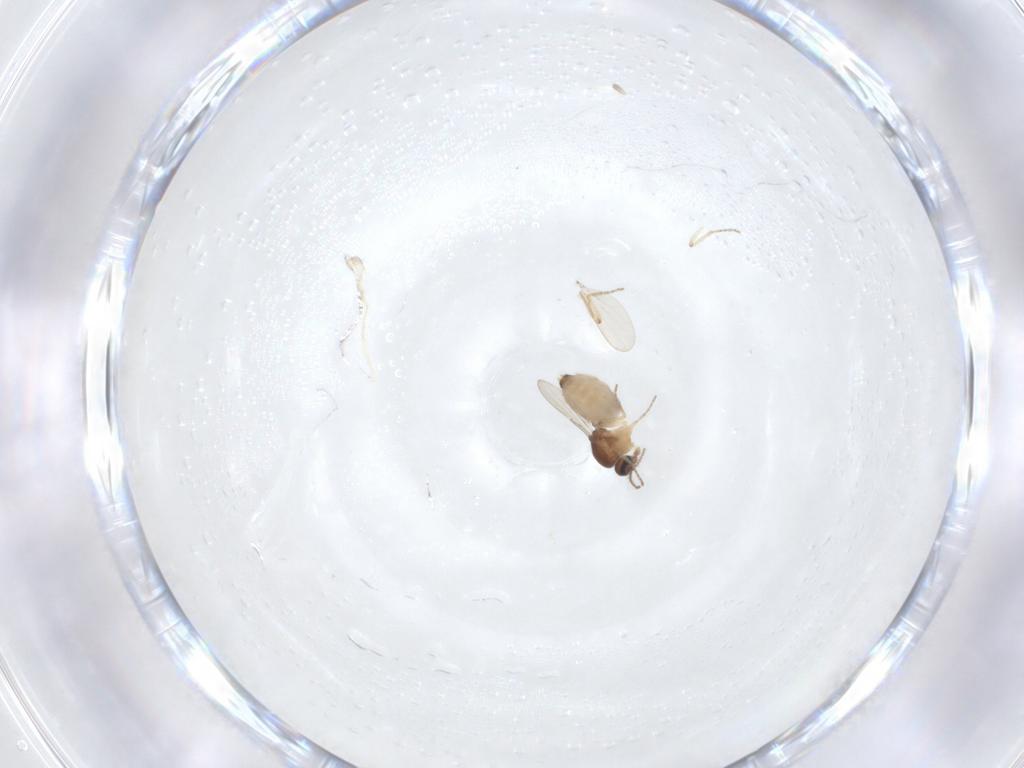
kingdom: Animalia
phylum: Arthropoda
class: Insecta
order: Diptera
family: Ceratopogonidae
